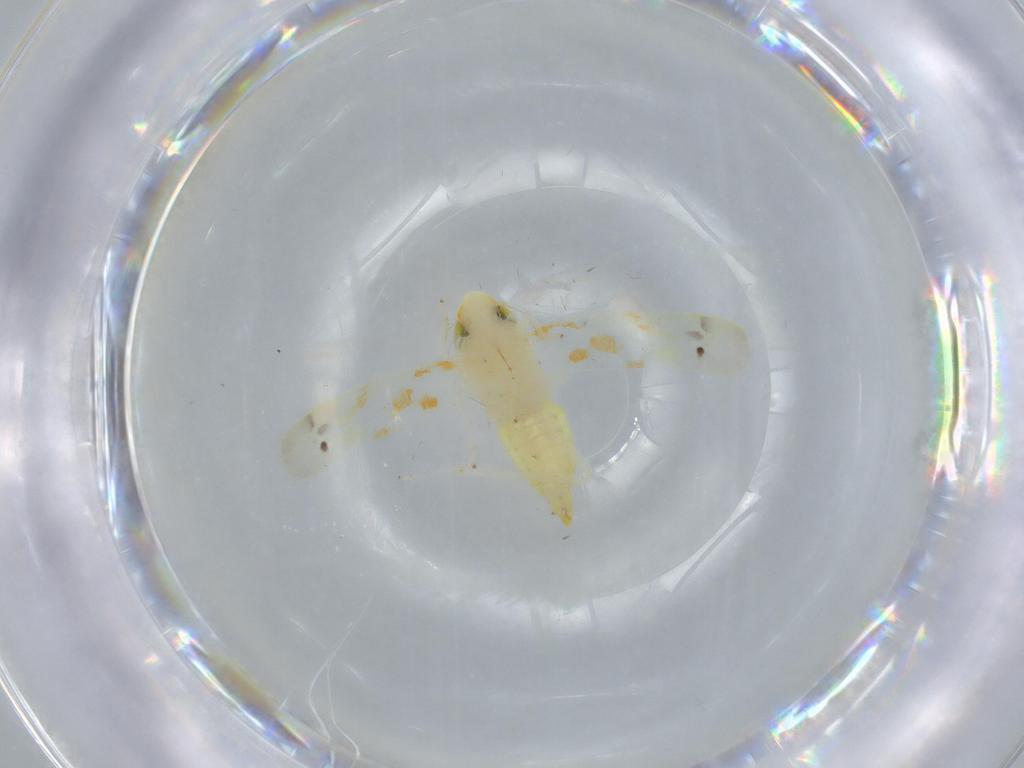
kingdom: Animalia
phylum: Arthropoda
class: Insecta
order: Hemiptera
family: Cicadellidae
